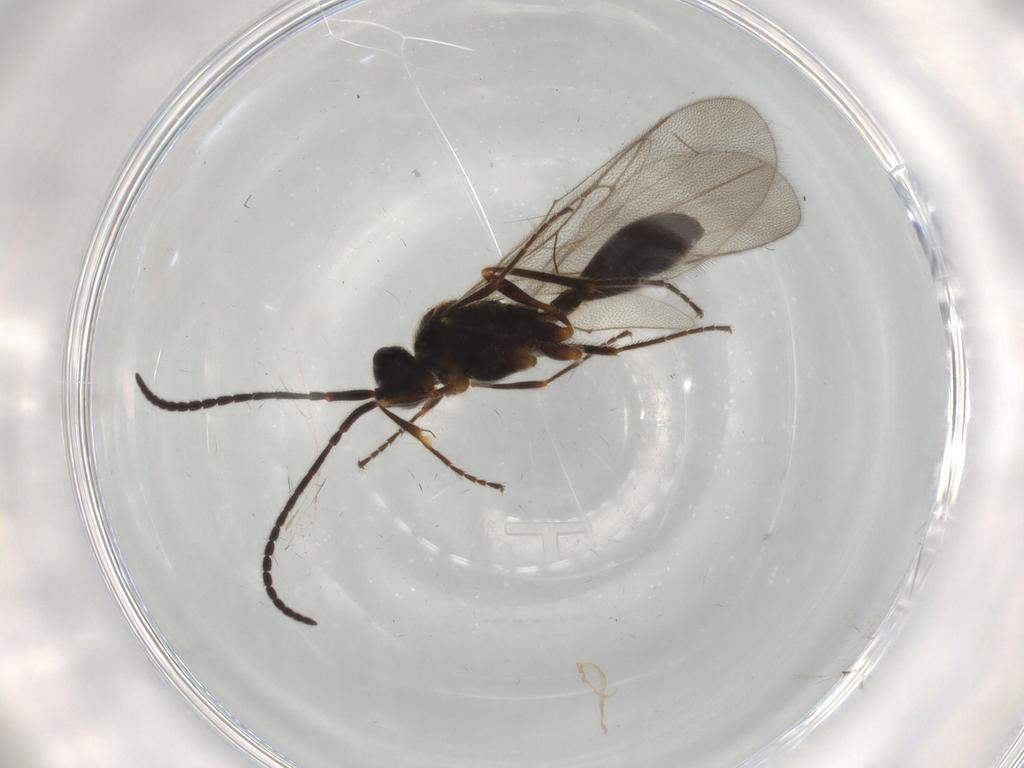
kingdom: Animalia
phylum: Arthropoda
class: Insecta
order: Hymenoptera
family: Diapriidae
